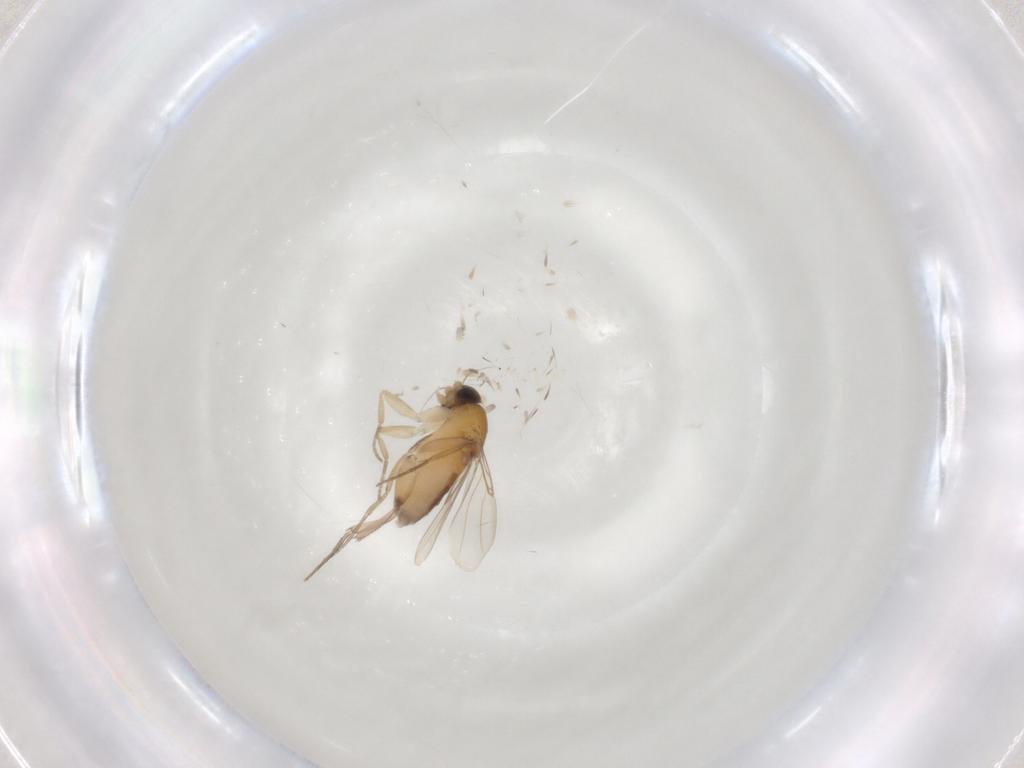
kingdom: Animalia
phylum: Arthropoda
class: Insecta
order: Diptera
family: Phoridae
